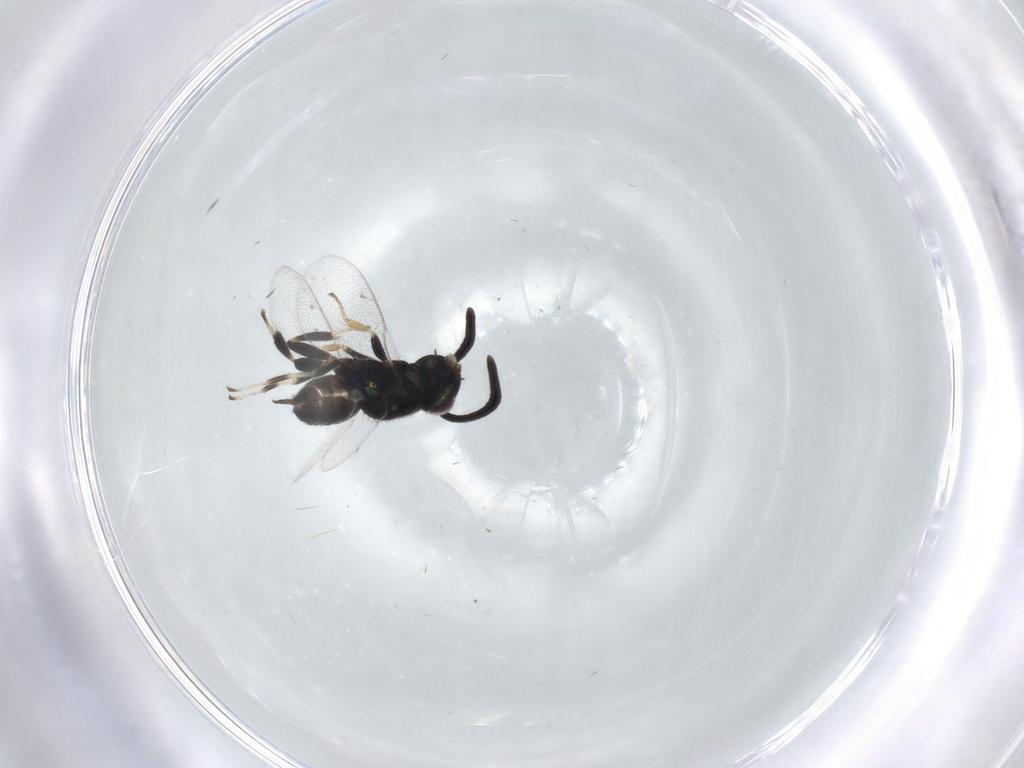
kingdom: Animalia
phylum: Arthropoda
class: Insecta
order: Hymenoptera
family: Eupelmidae
